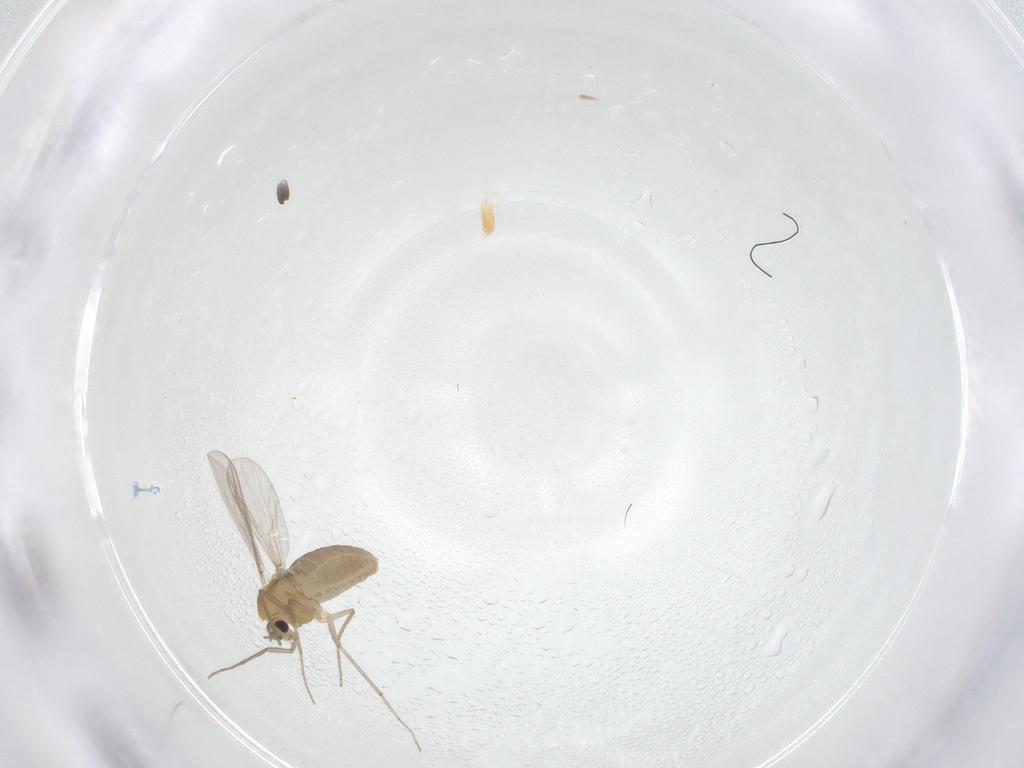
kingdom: Animalia
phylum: Arthropoda
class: Insecta
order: Diptera
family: Chironomidae
